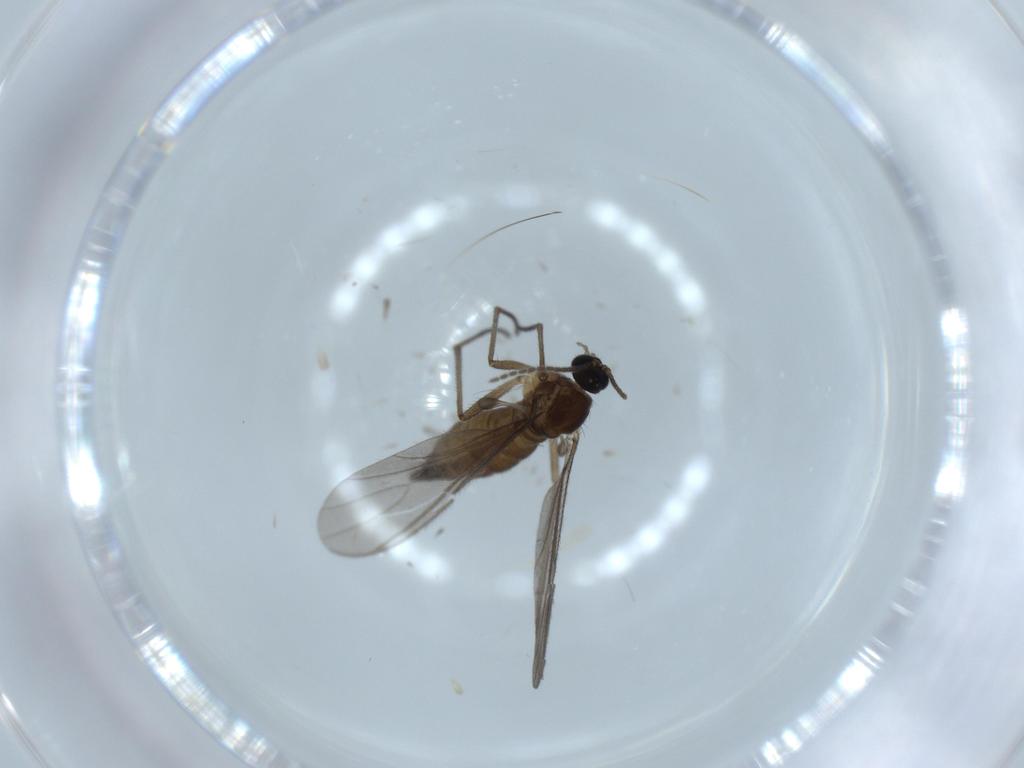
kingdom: Animalia
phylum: Arthropoda
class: Insecta
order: Diptera
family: Sciaridae
